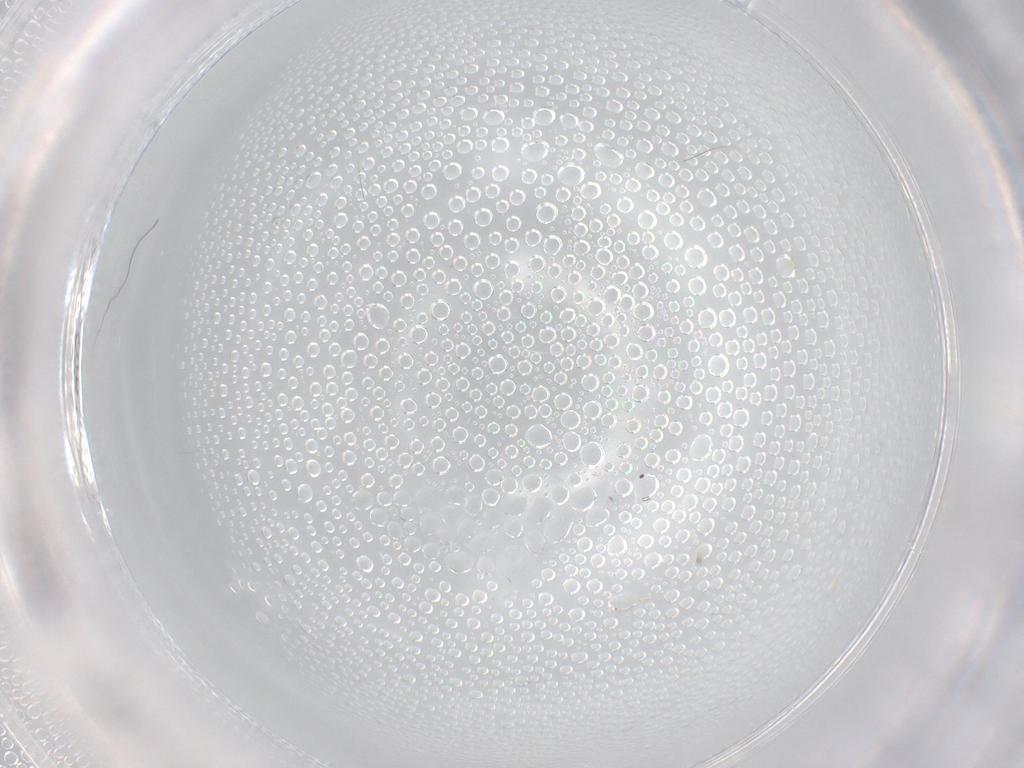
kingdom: Animalia
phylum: Arthropoda
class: Insecta
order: Diptera
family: Cecidomyiidae
